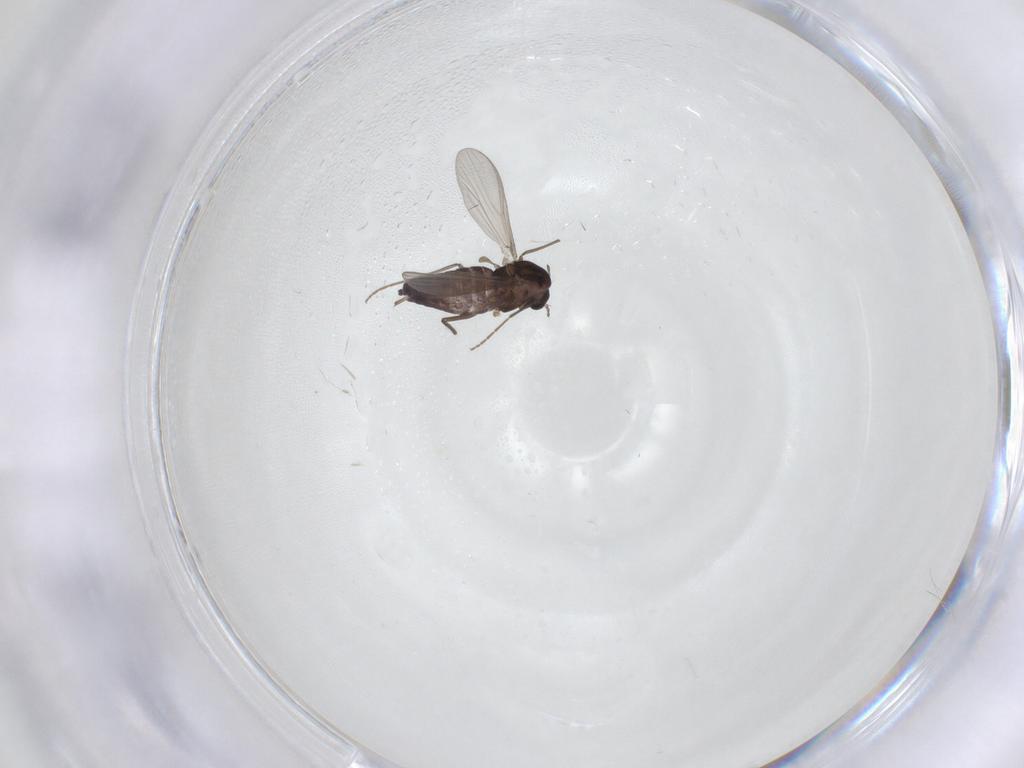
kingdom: Animalia
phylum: Arthropoda
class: Insecta
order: Diptera
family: Chironomidae
